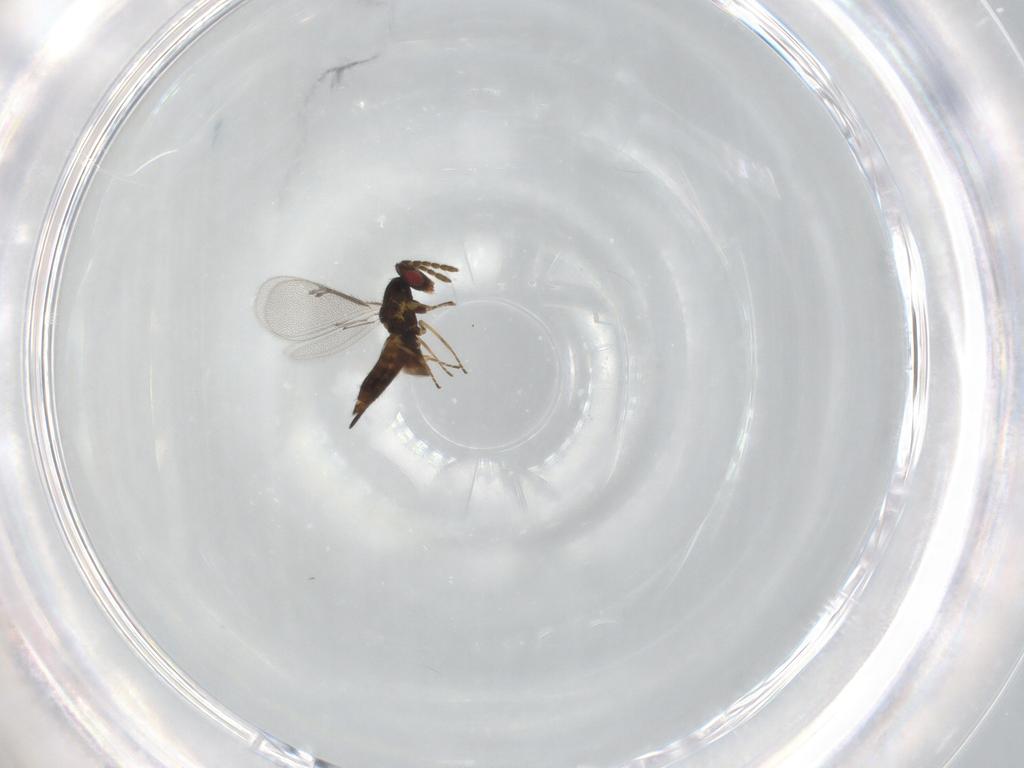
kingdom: Animalia
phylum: Arthropoda
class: Insecta
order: Hymenoptera
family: Eulophidae
